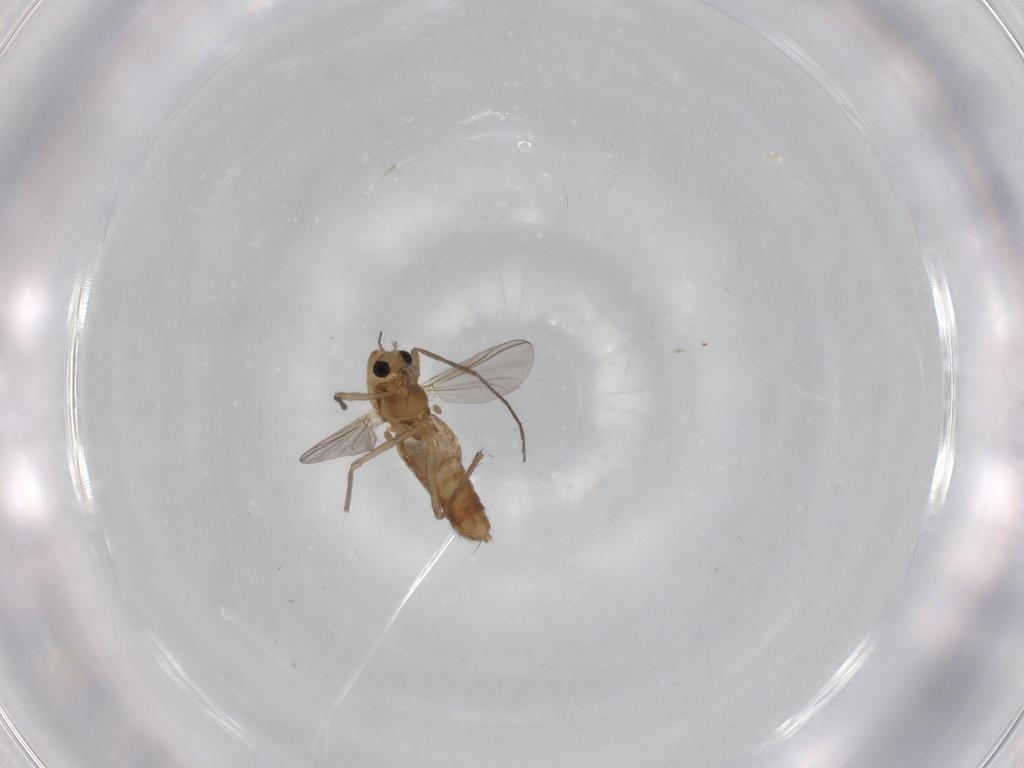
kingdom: Animalia
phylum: Arthropoda
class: Insecta
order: Diptera
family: Chironomidae
